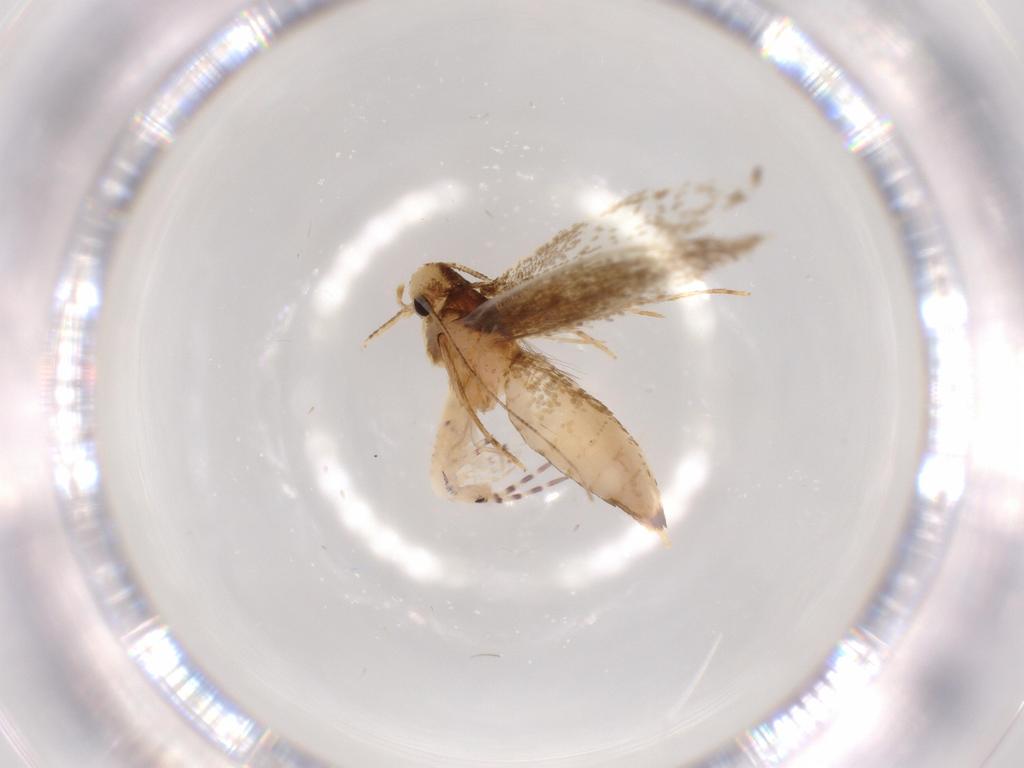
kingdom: Animalia
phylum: Arthropoda
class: Insecta
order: Lepidoptera
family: Tineidae
